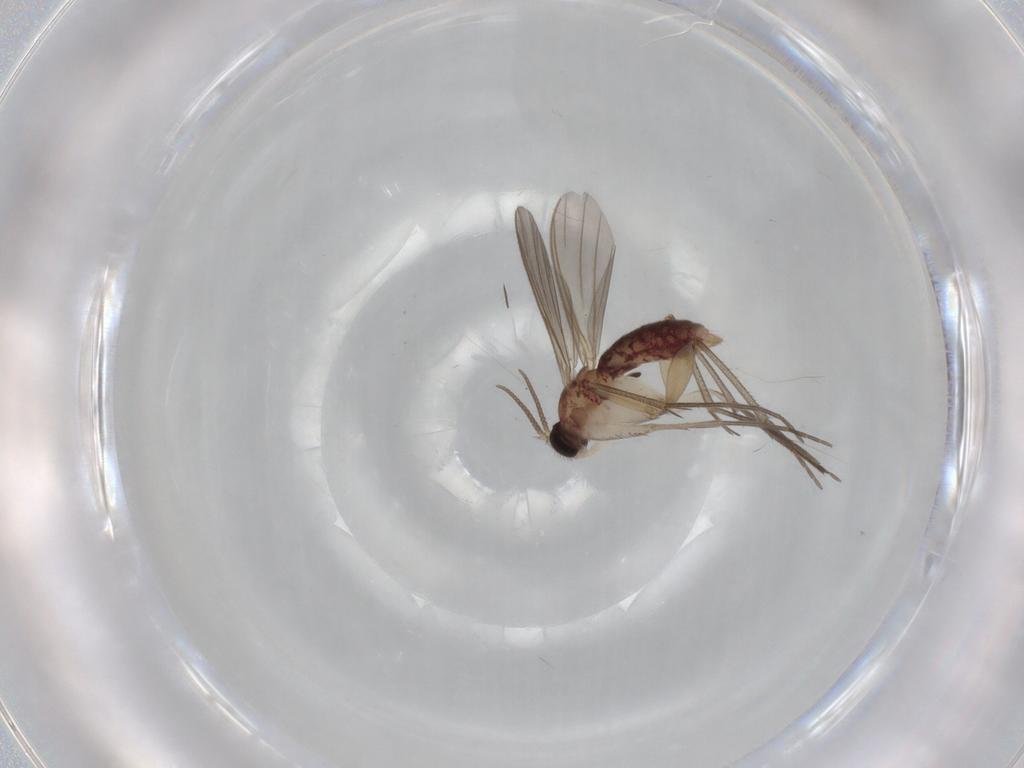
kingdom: Animalia
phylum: Arthropoda
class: Insecta
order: Diptera
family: Mycetophilidae
